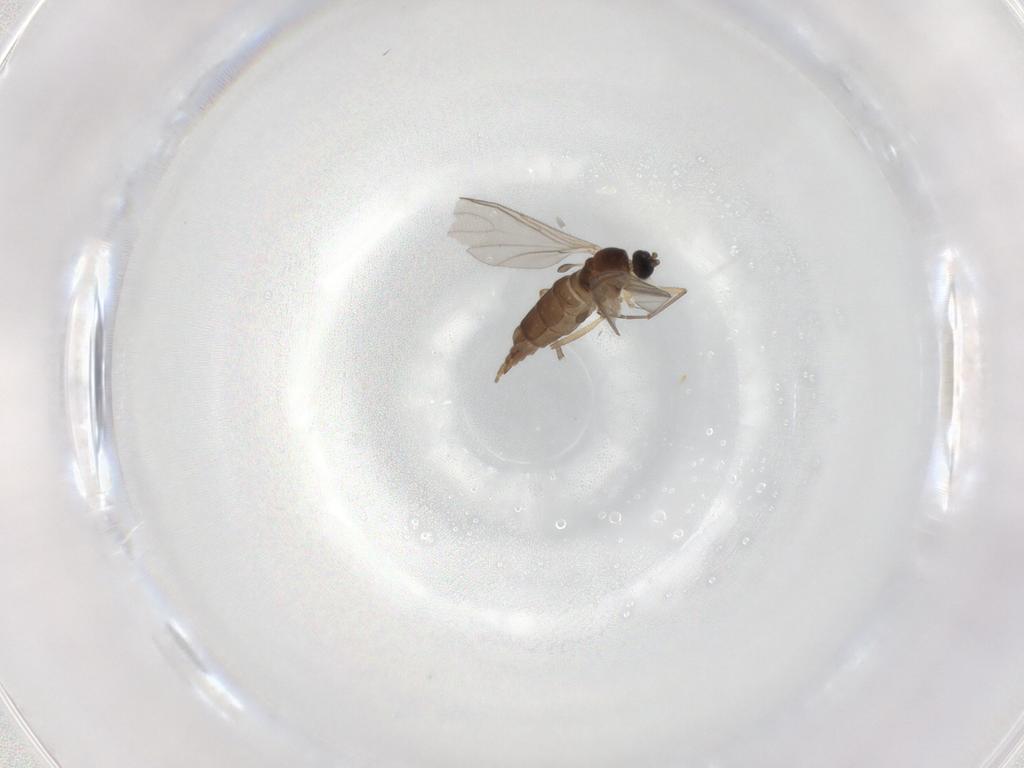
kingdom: Animalia
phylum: Arthropoda
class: Insecta
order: Diptera
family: Sciaridae
